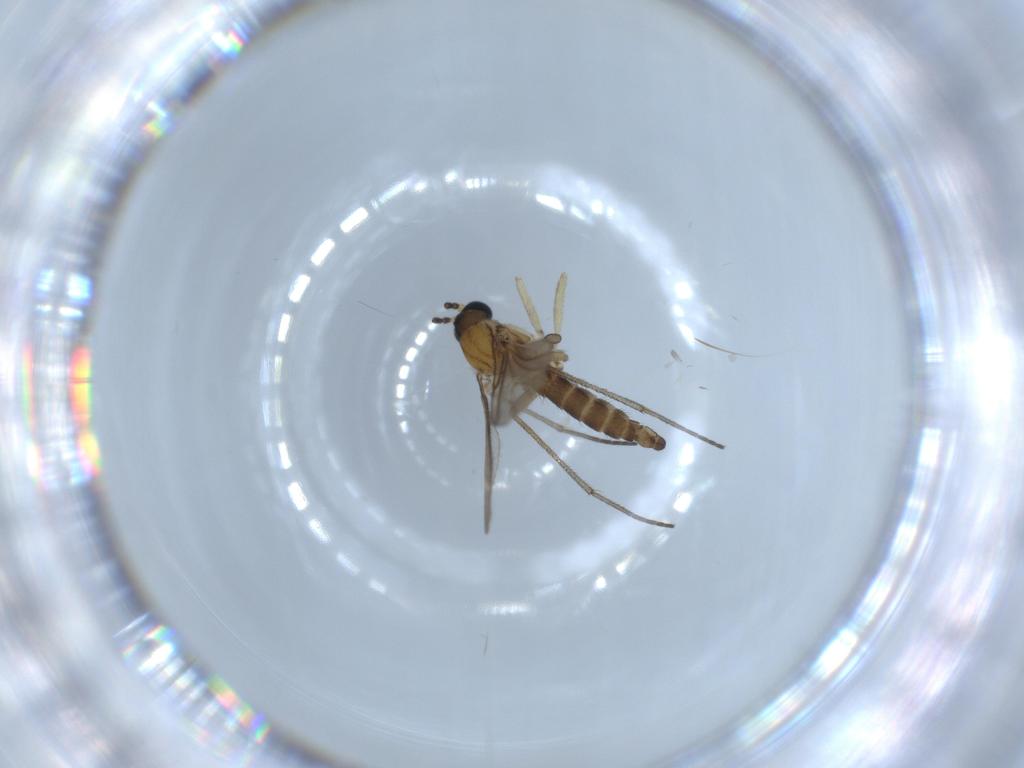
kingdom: Animalia
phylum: Arthropoda
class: Insecta
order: Diptera
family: Sciaridae
